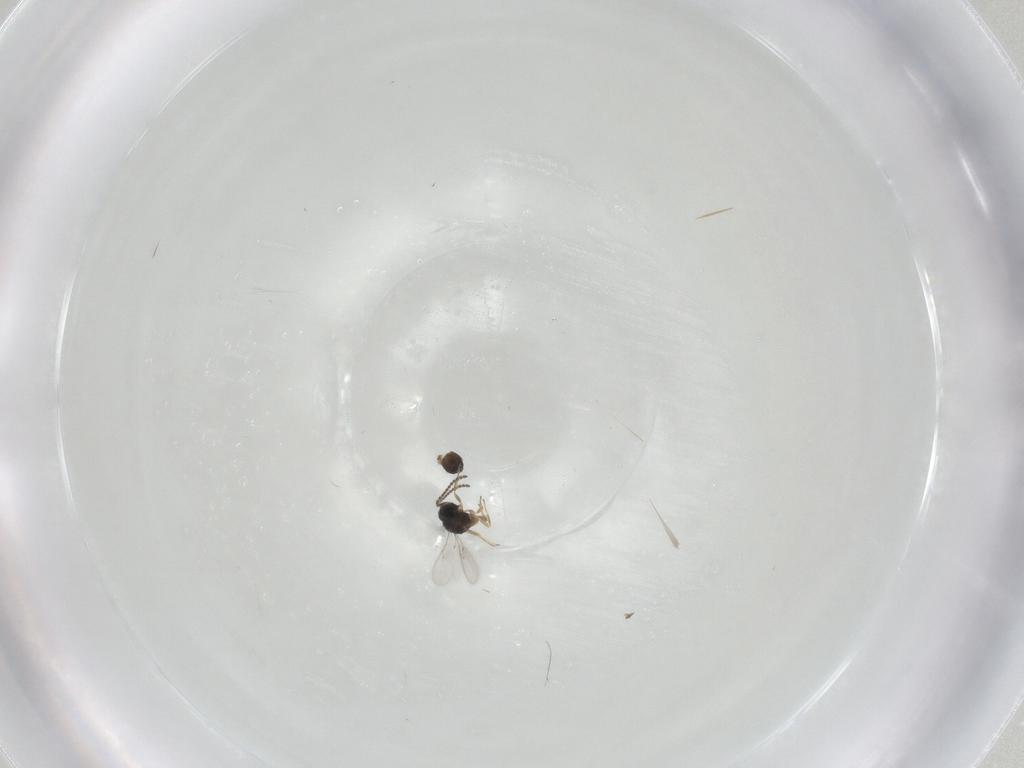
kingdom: Animalia
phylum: Arthropoda
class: Insecta
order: Hymenoptera
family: Scelionidae
